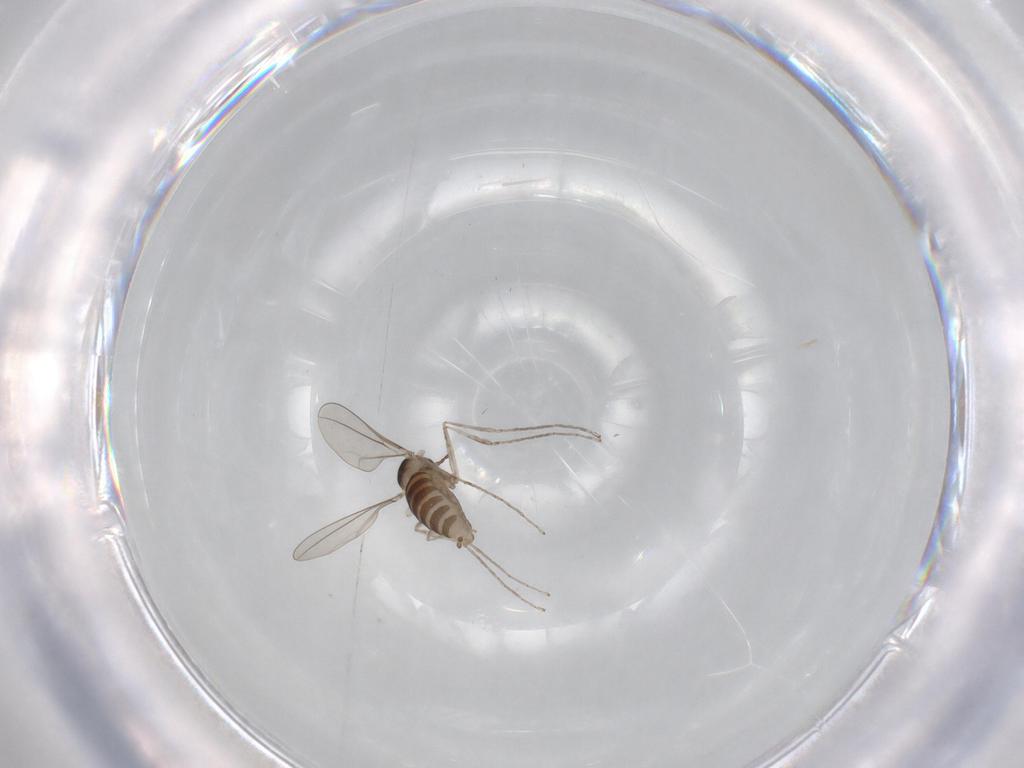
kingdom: Animalia
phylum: Arthropoda
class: Insecta
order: Diptera
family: Cecidomyiidae
